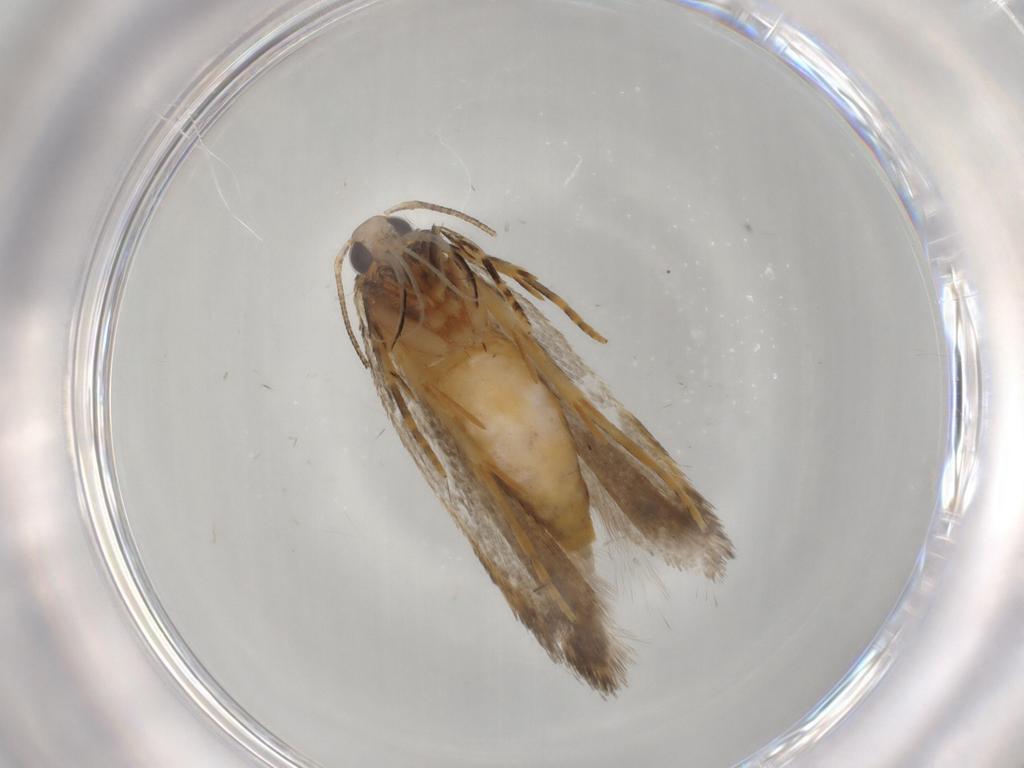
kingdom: Animalia
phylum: Arthropoda
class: Insecta
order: Lepidoptera
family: Autostichidae
